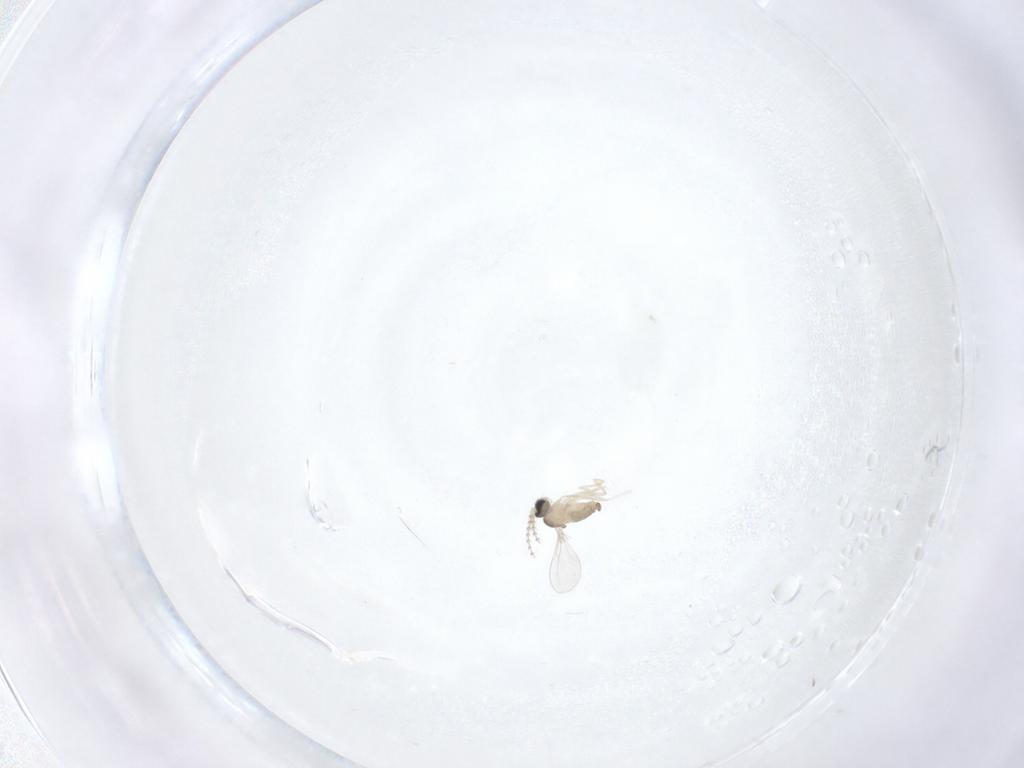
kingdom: Animalia
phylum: Arthropoda
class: Insecta
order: Diptera
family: Cecidomyiidae
